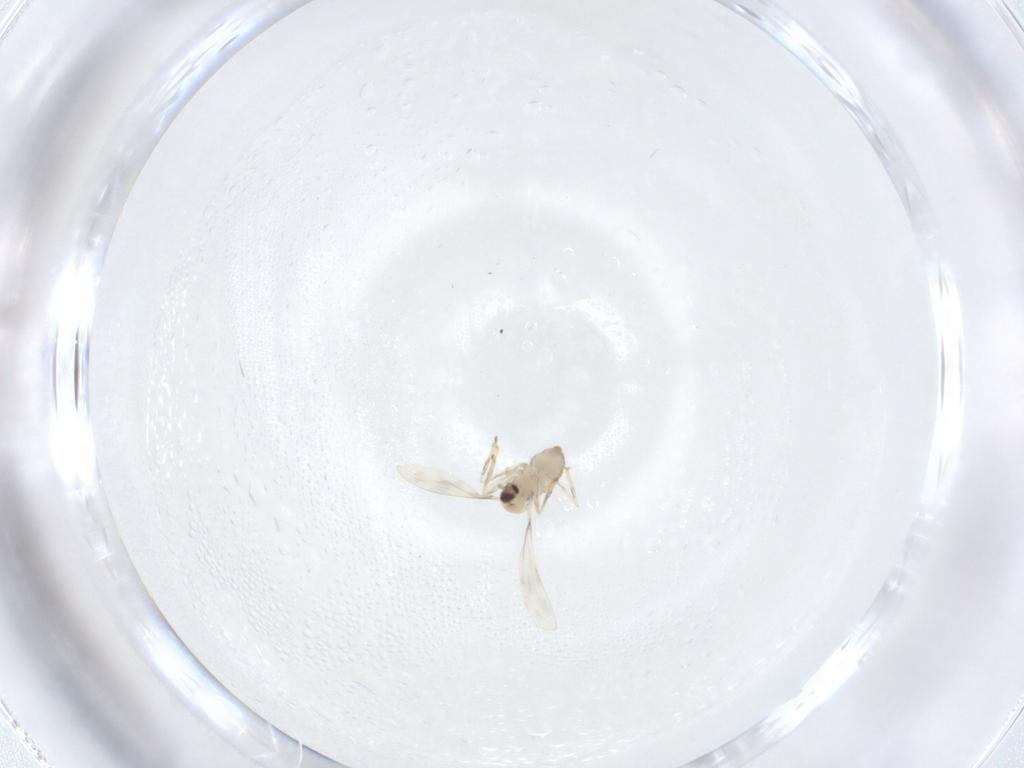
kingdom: Animalia
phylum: Arthropoda
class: Insecta
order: Diptera
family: Cecidomyiidae
